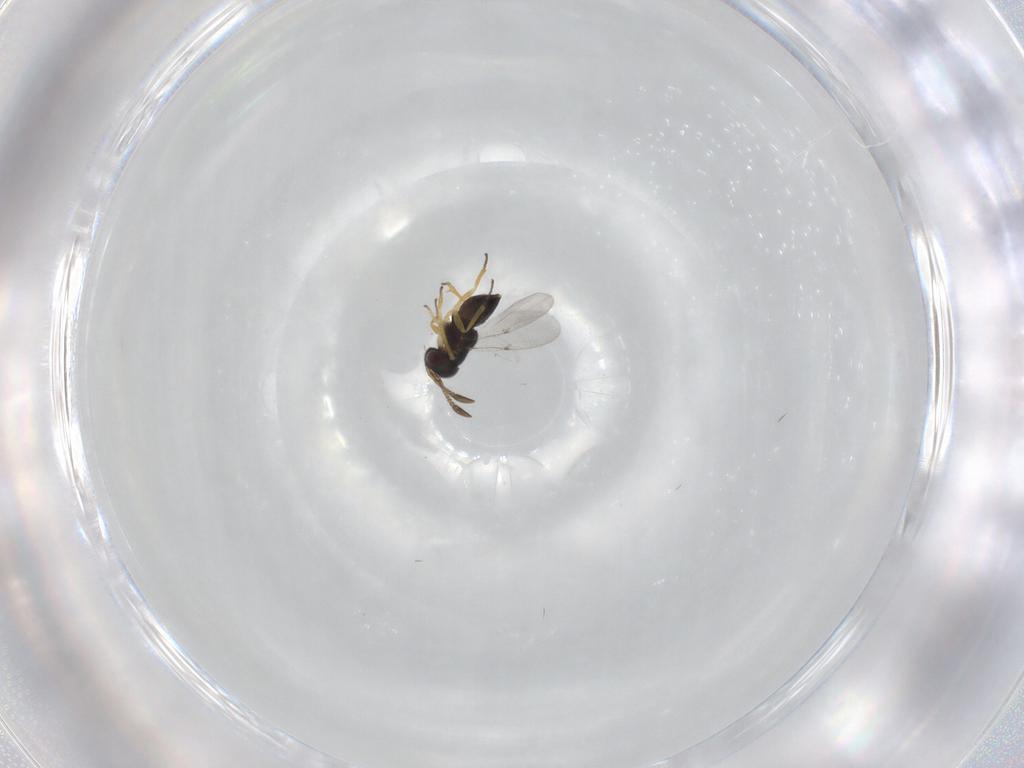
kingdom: Animalia
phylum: Arthropoda
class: Insecta
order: Hymenoptera
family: Encyrtidae
